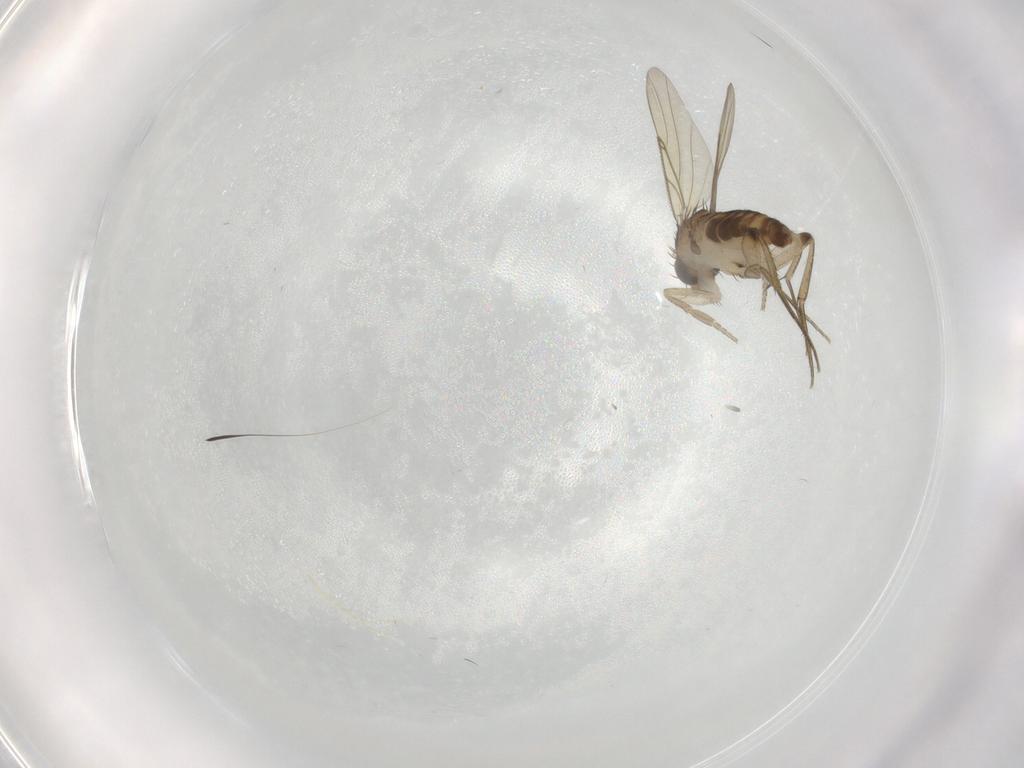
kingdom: Animalia
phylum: Arthropoda
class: Insecta
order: Diptera
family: Phoridae
